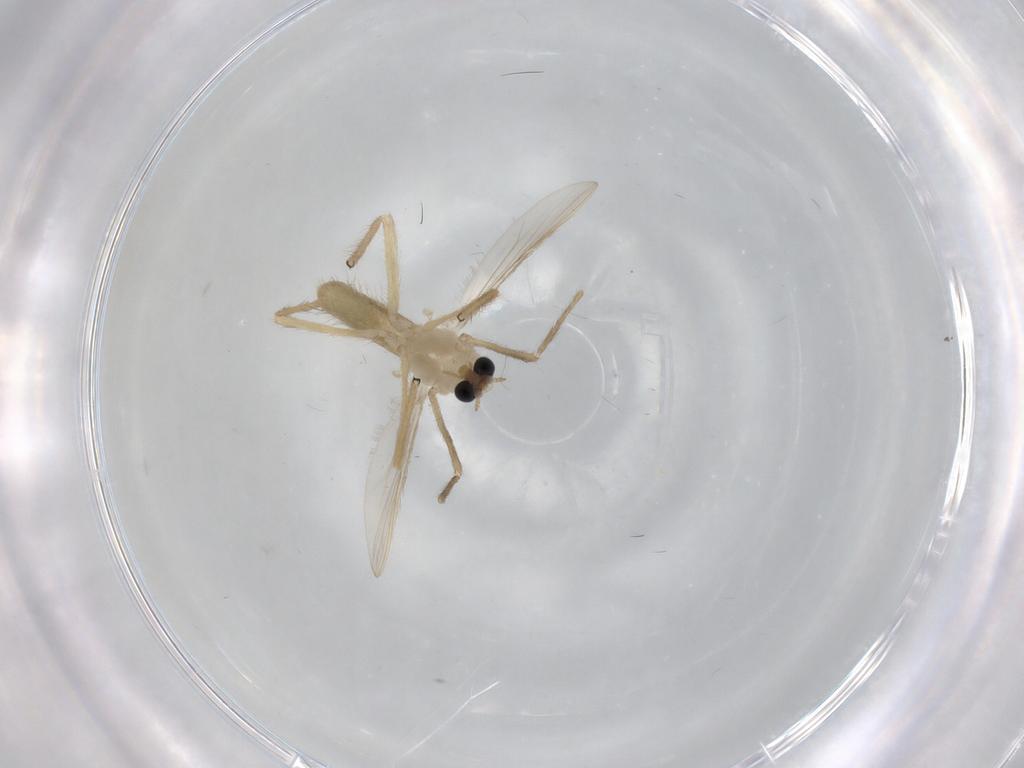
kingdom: Animalia
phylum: Arthropoda
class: Insecta
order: Diptera
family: Chironomidae
